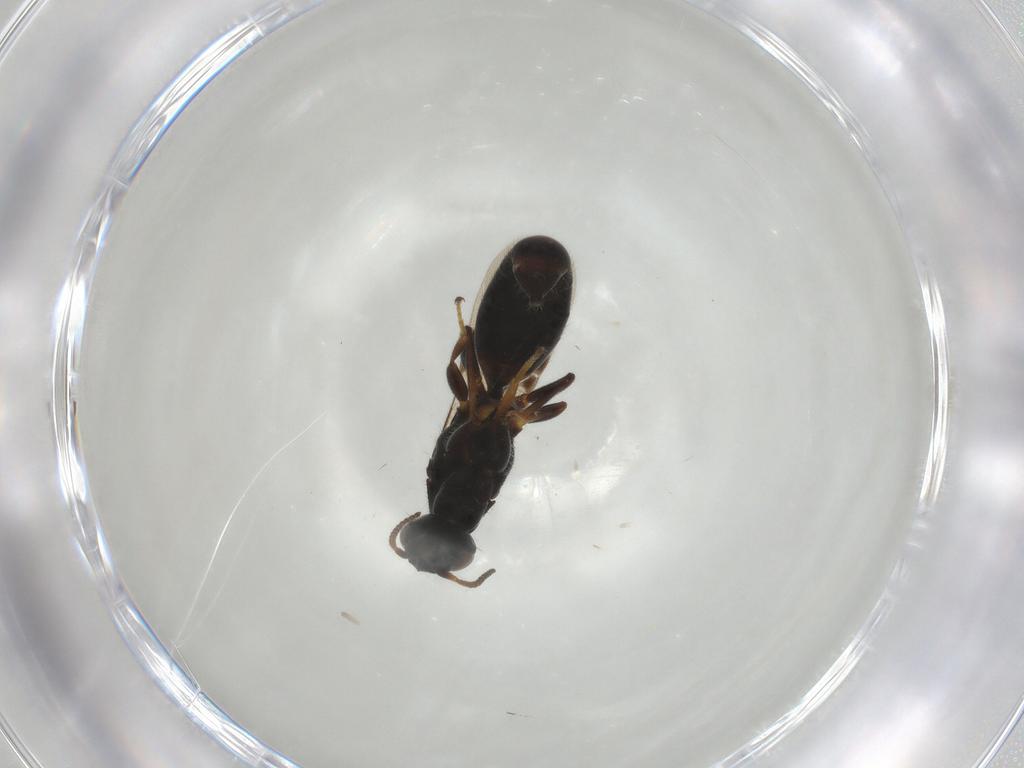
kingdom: Animalia
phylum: Arthropoda
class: Insecta
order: Hymenoptera
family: Bethylidae
